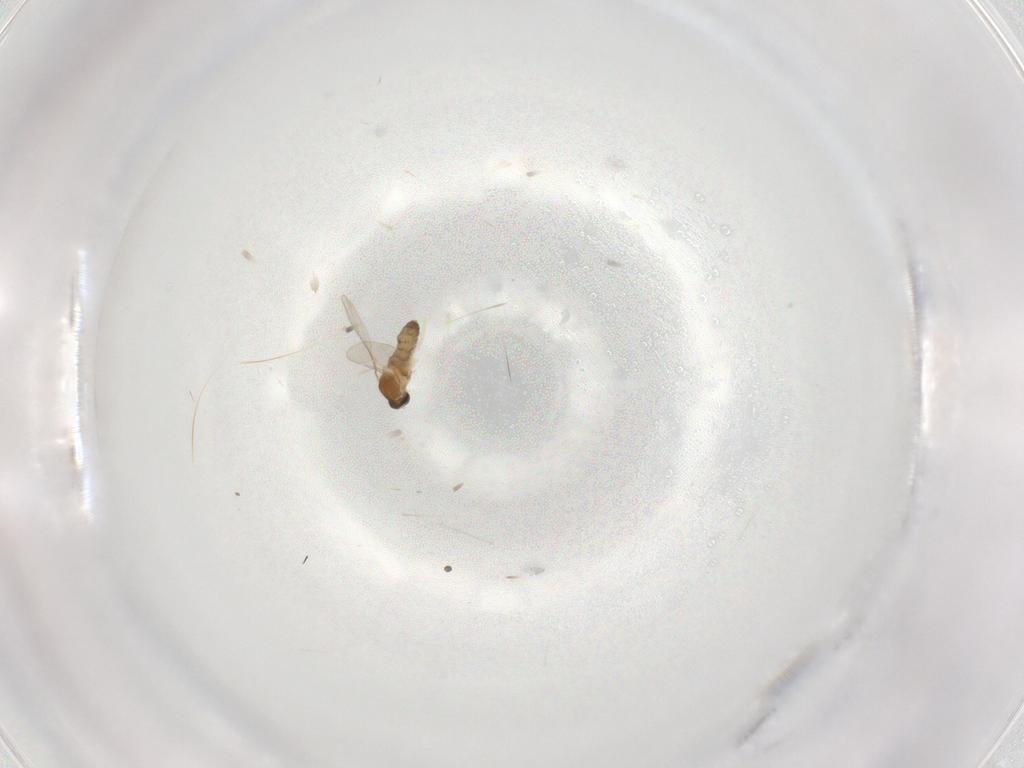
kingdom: Animalia
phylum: Arthropoda
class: Insecta
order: Diptera
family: Cecidomyiidae
